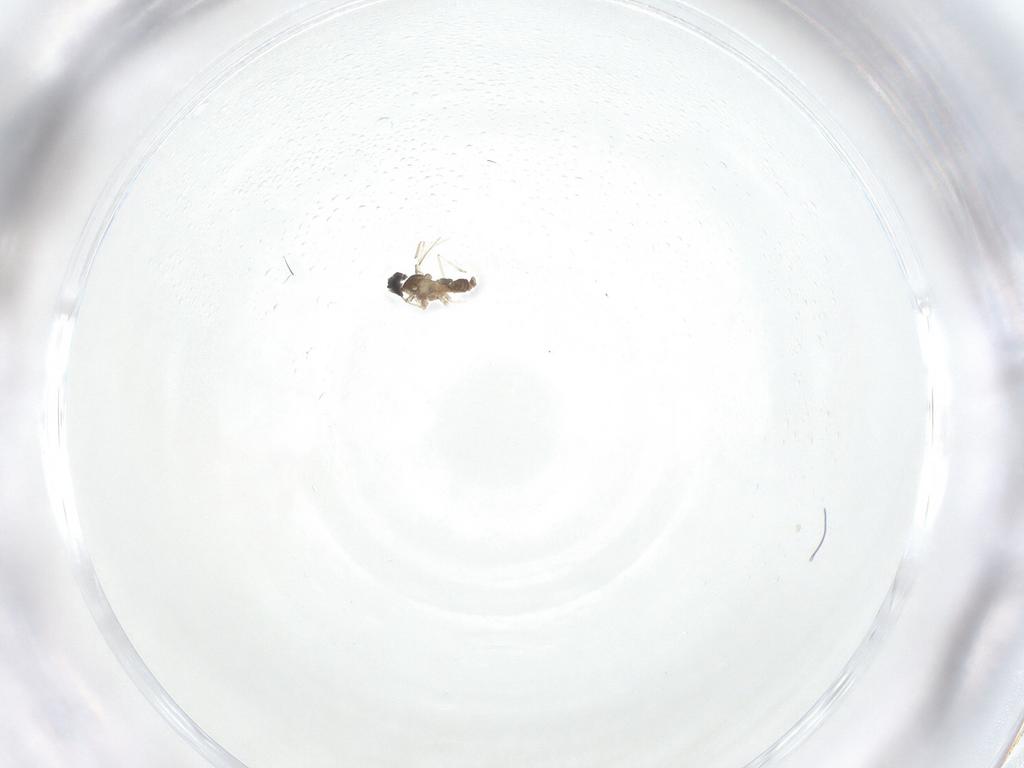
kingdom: Animalia
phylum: Arthropoda
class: Insecta
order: Diptera
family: Cecidomyiidae
